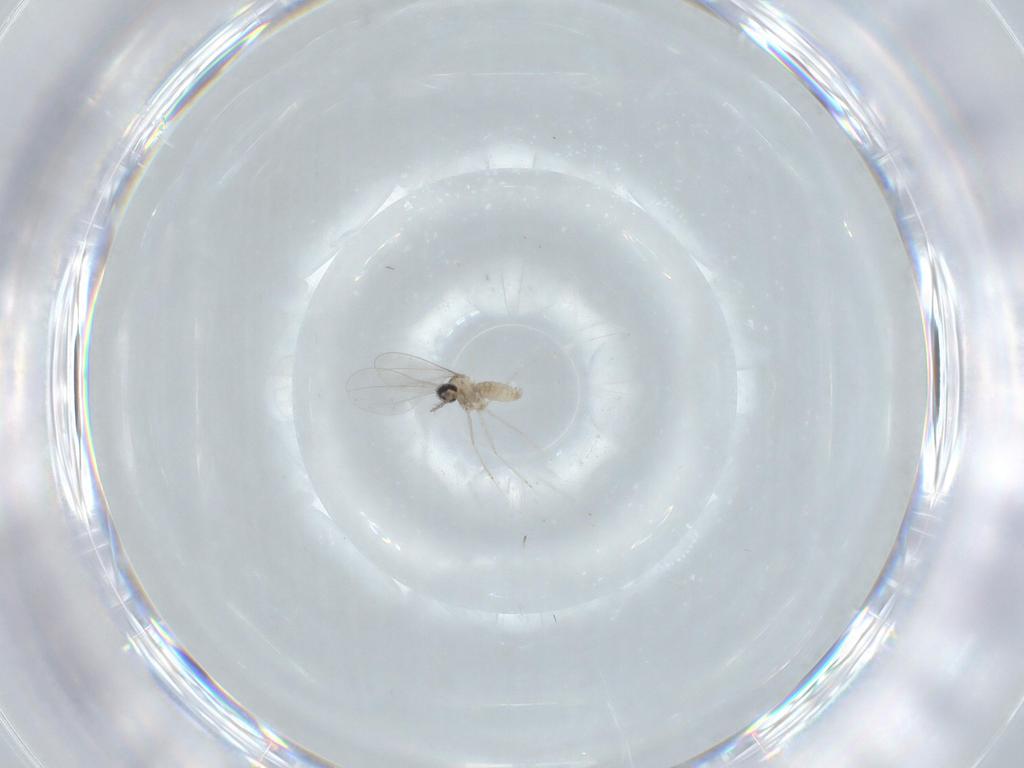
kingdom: Animalia
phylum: Arthropoda
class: Insecta
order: Diptera
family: Cecidomyiidae
